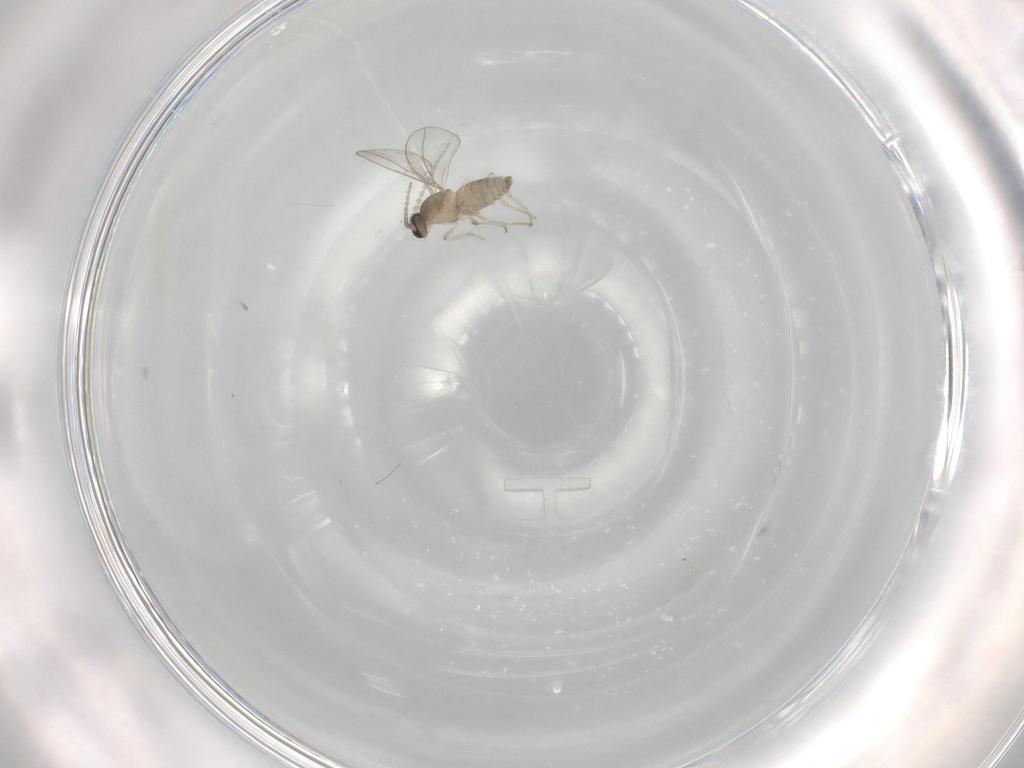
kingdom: Animalia
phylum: Arthropoda
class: Insecta
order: Diptera
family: Cecidomyiidae
